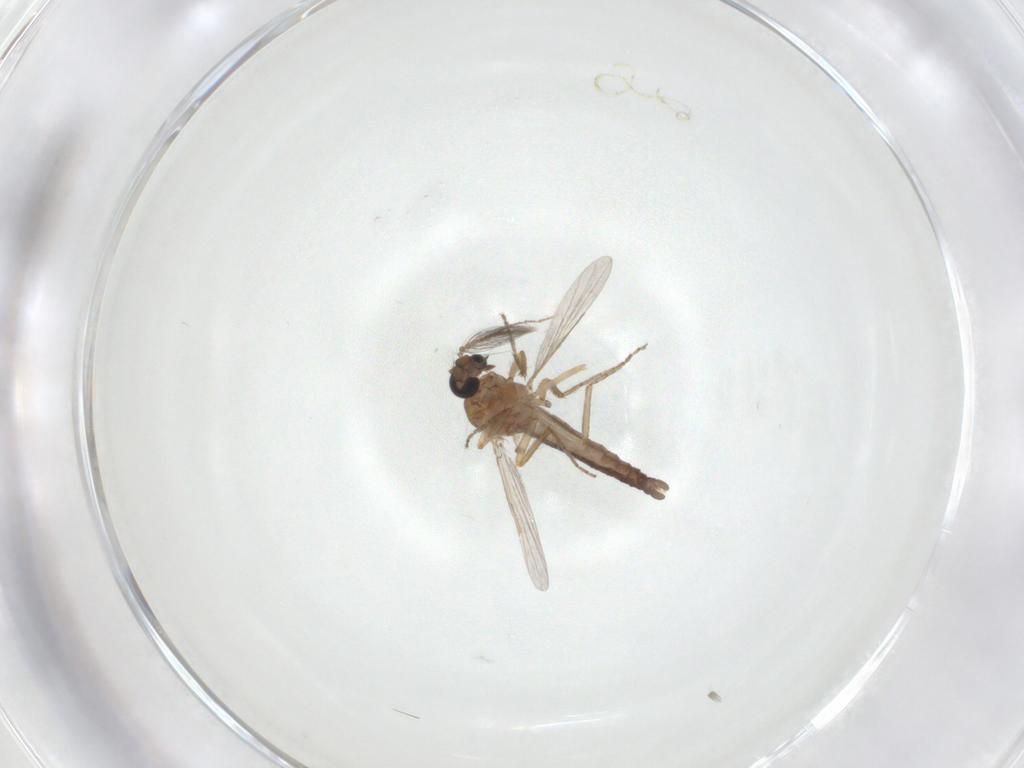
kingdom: Animalia
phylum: Arthropoda
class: Insecta
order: Diptera
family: Ceratopogonidae
